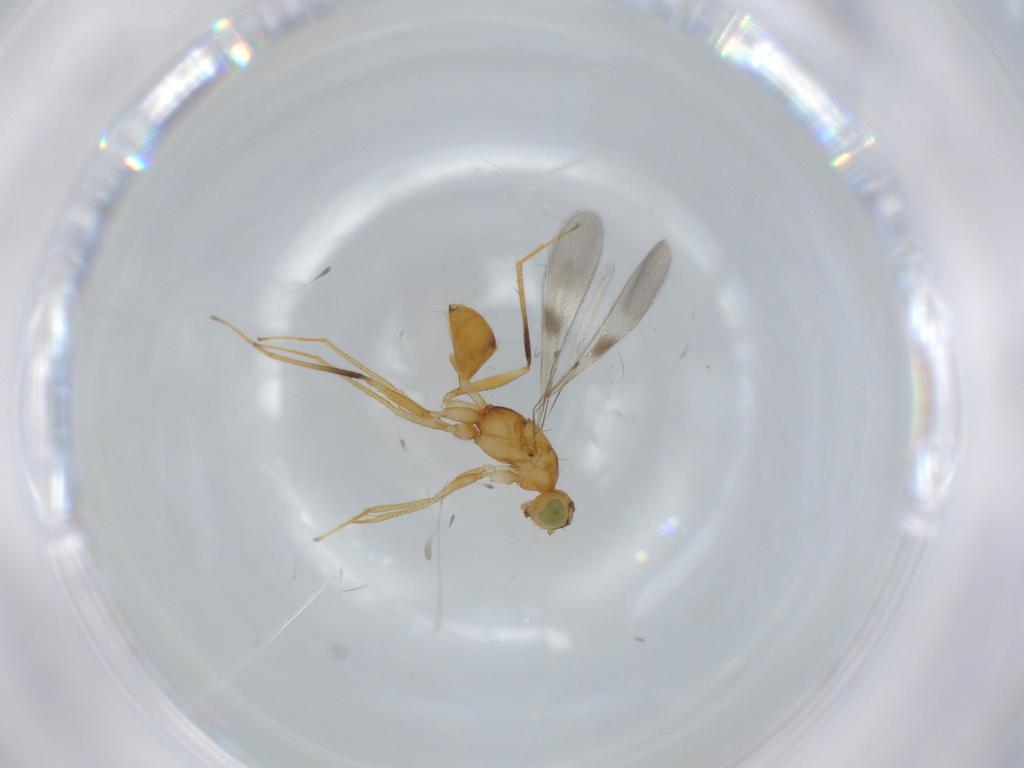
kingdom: Animalia
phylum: Arthropoda
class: Insecta
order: Hymenoptera
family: Mymaridae
